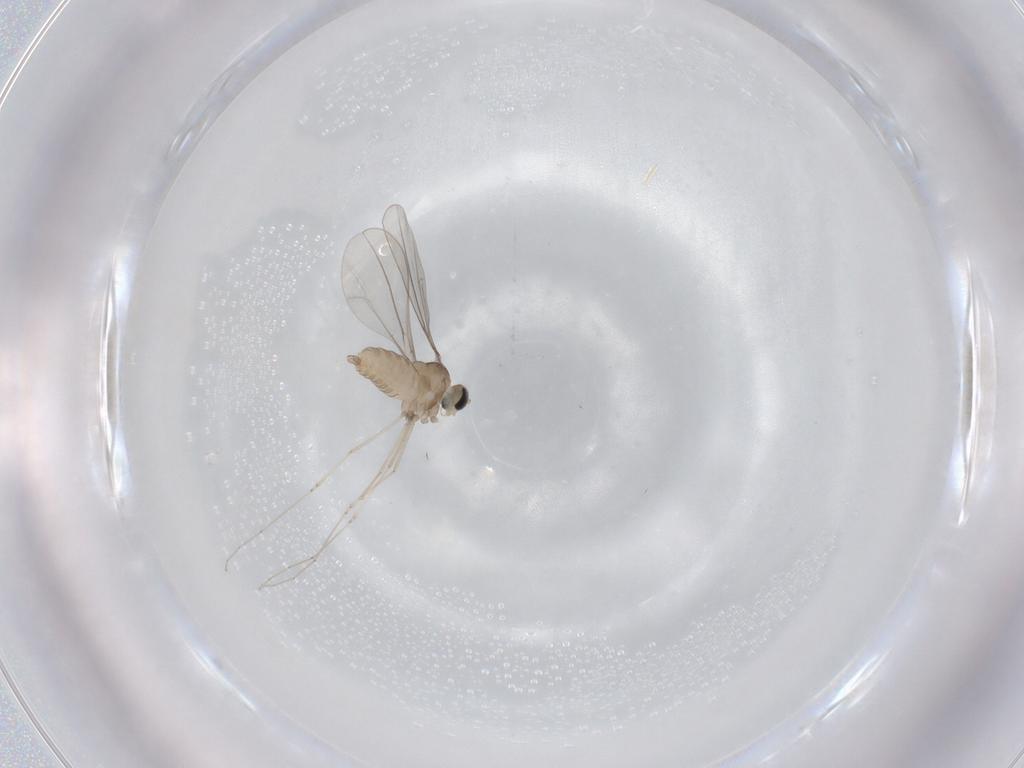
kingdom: Animalia
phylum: Arthropoda
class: Insecta
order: Diptera
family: Cecidomyiidae
